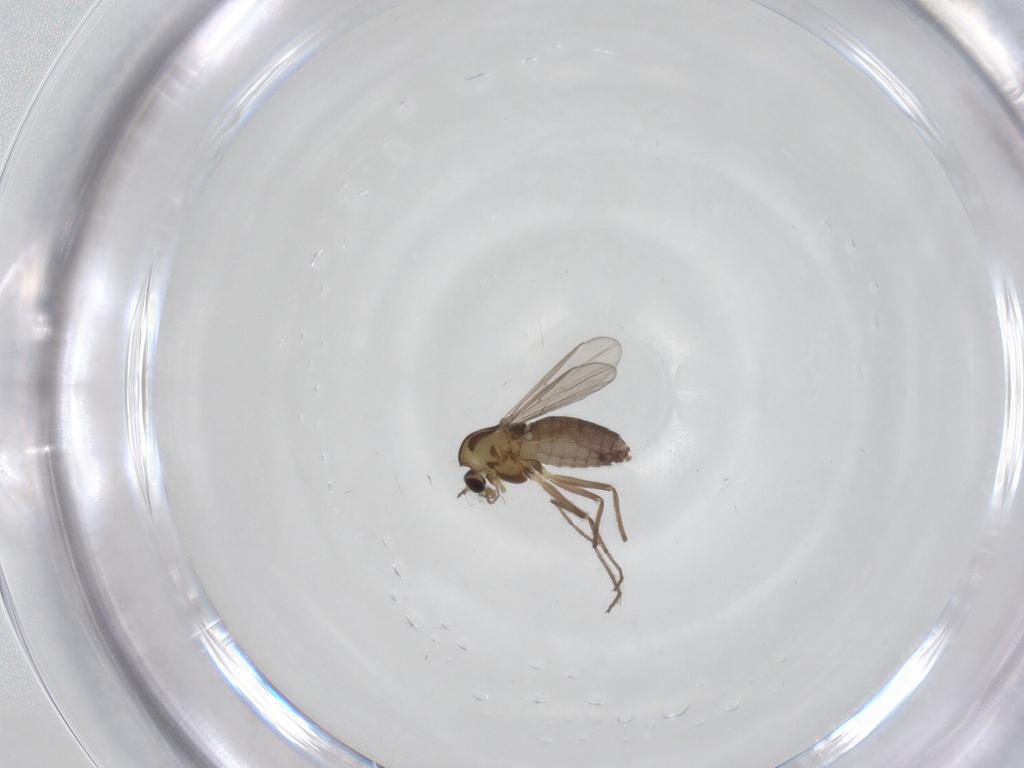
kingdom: Animalia
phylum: Arthropoda
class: Insecta
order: Diptera
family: Chironomidae
